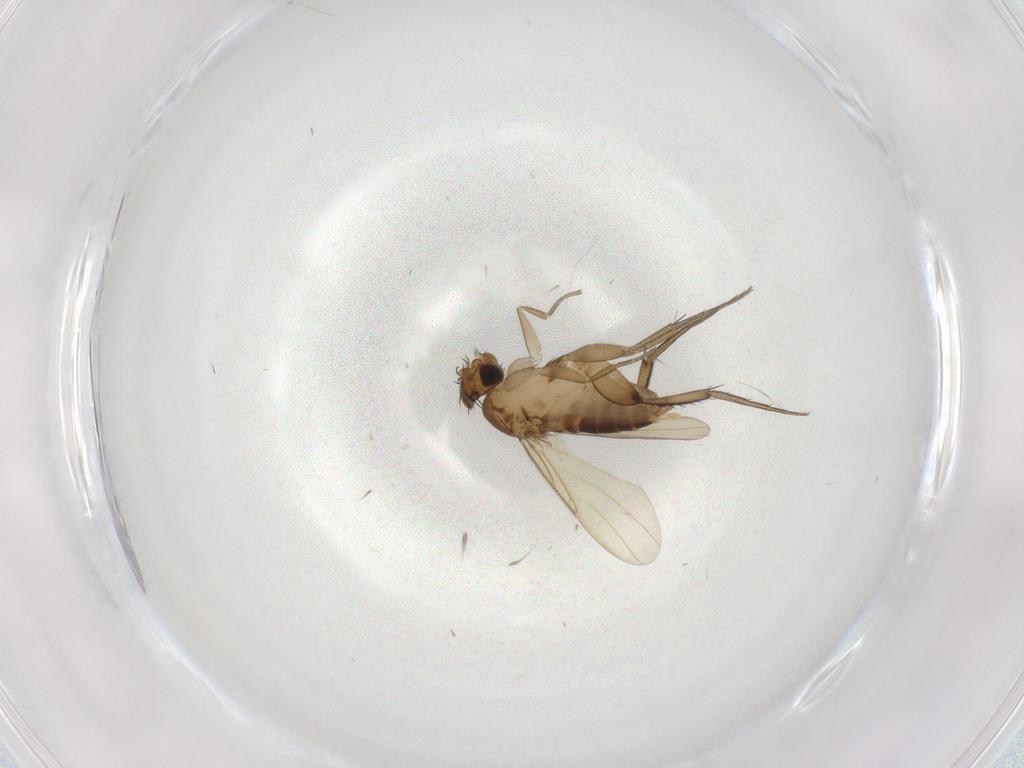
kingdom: Animalia
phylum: Arthropoda
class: Insecta
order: Diptera
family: Phoridae
